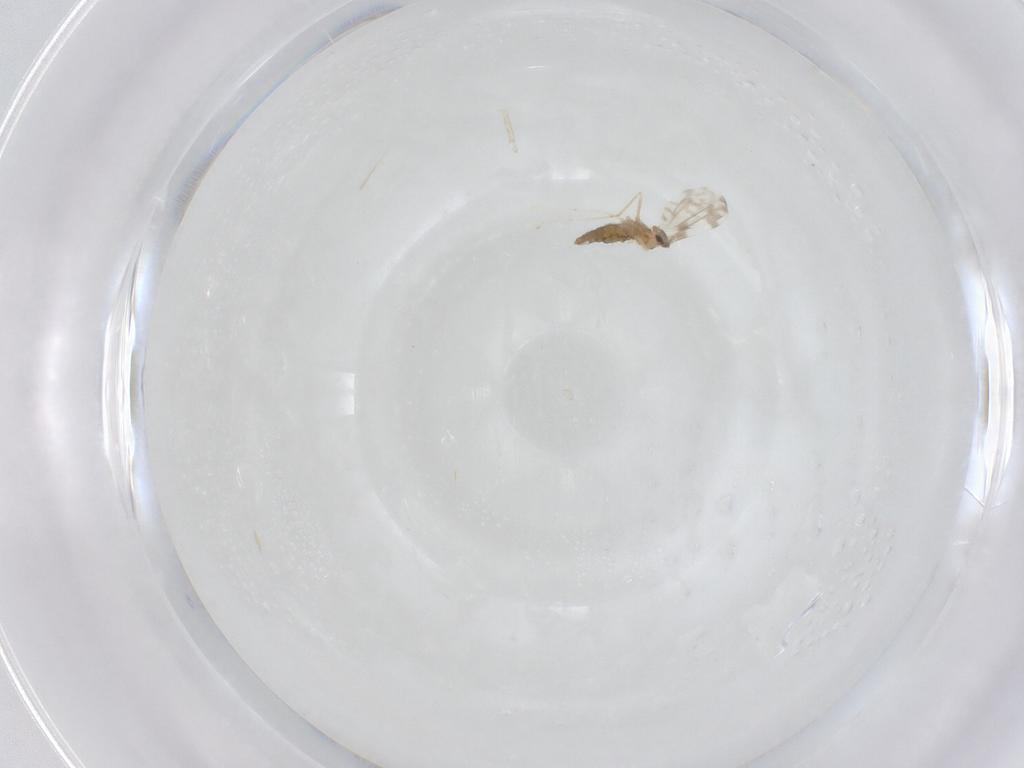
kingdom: Animalia
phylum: Arthropoda
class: Insecta
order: Diptera
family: Cecidomyiidae
